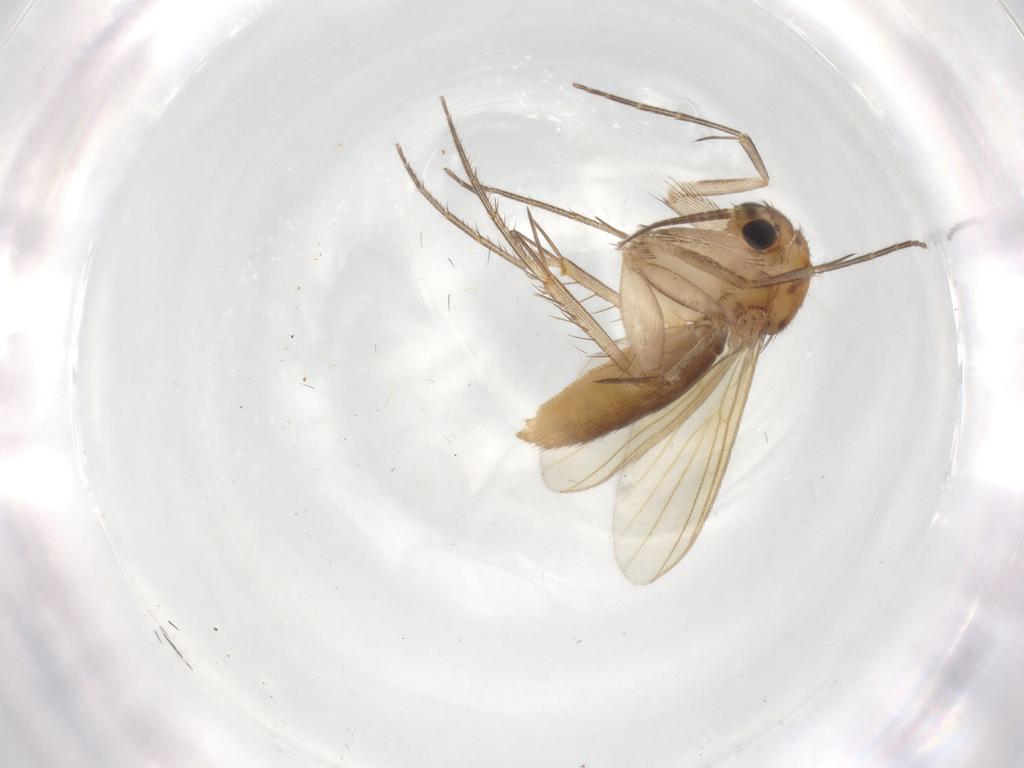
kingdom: Animalia
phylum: Arthropoda
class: Insecta
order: Diptera
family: Mycetophilidae
